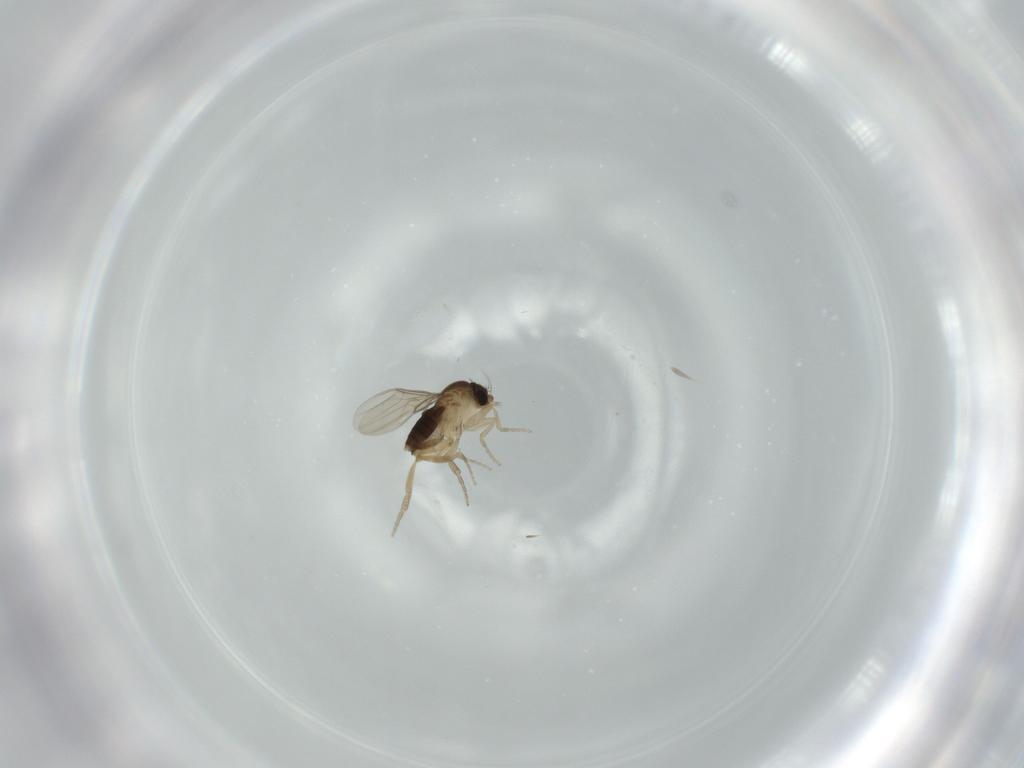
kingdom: Animalia
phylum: Arthropoda
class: Insecta
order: Diptera
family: Phoridae
